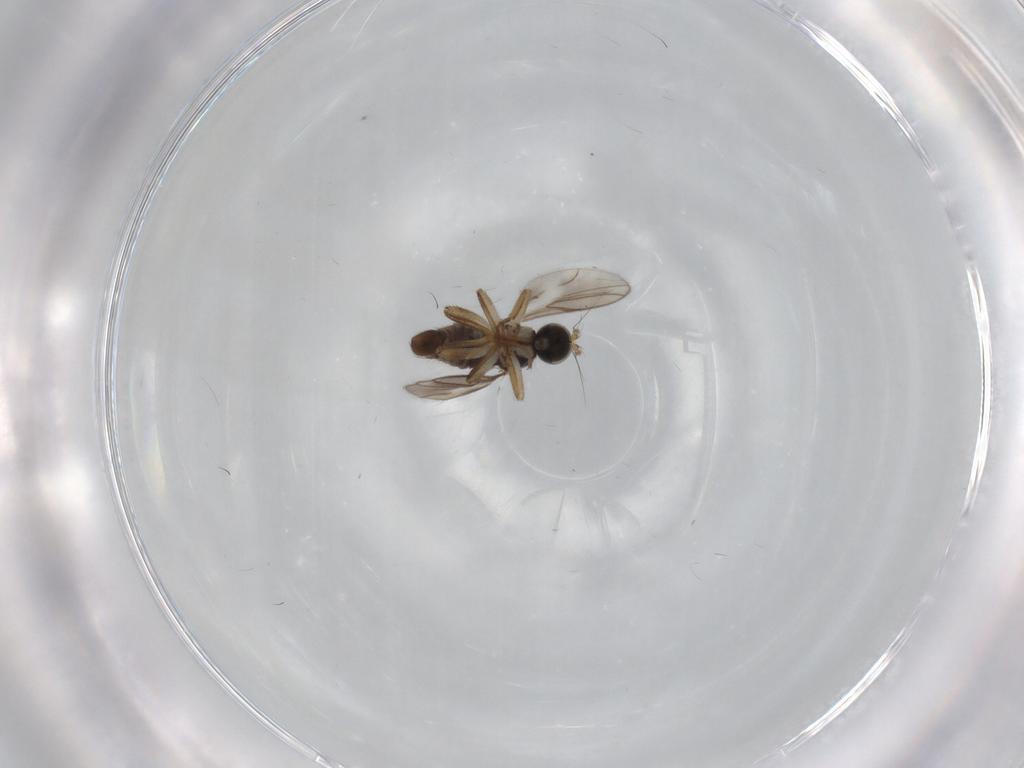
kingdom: Animalia
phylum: Arthropoda
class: Insecta
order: Diptera
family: Chironomidae
